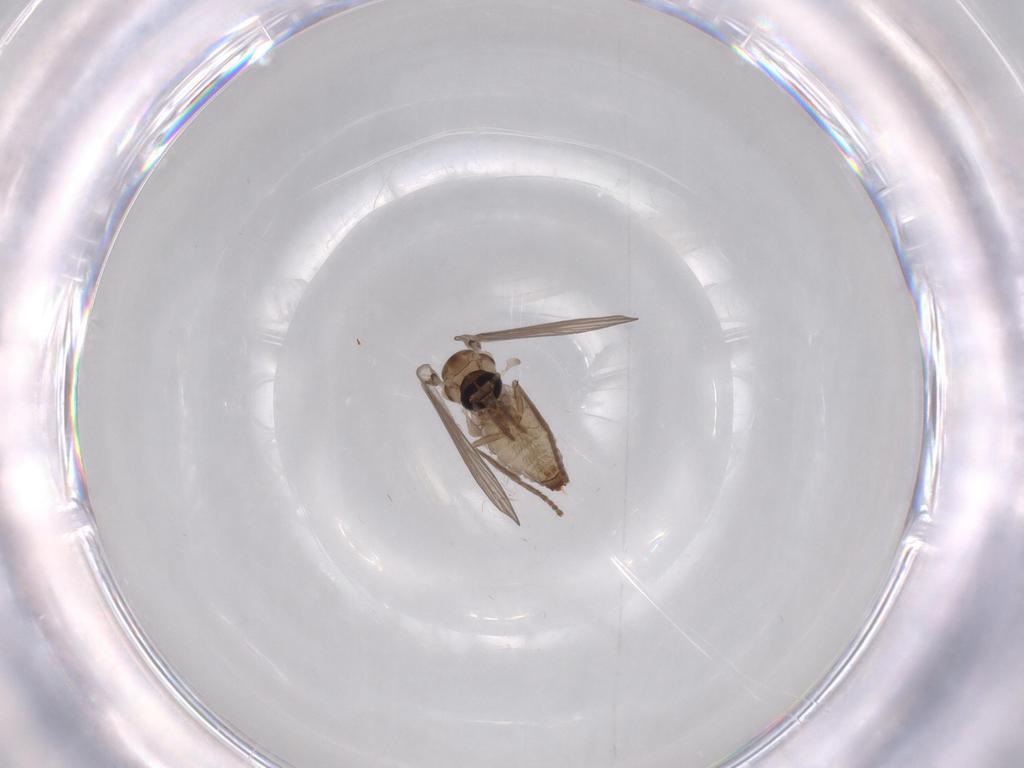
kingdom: Animalia
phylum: Arthropoda
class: Insecta
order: Diptera
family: Psychodidae
